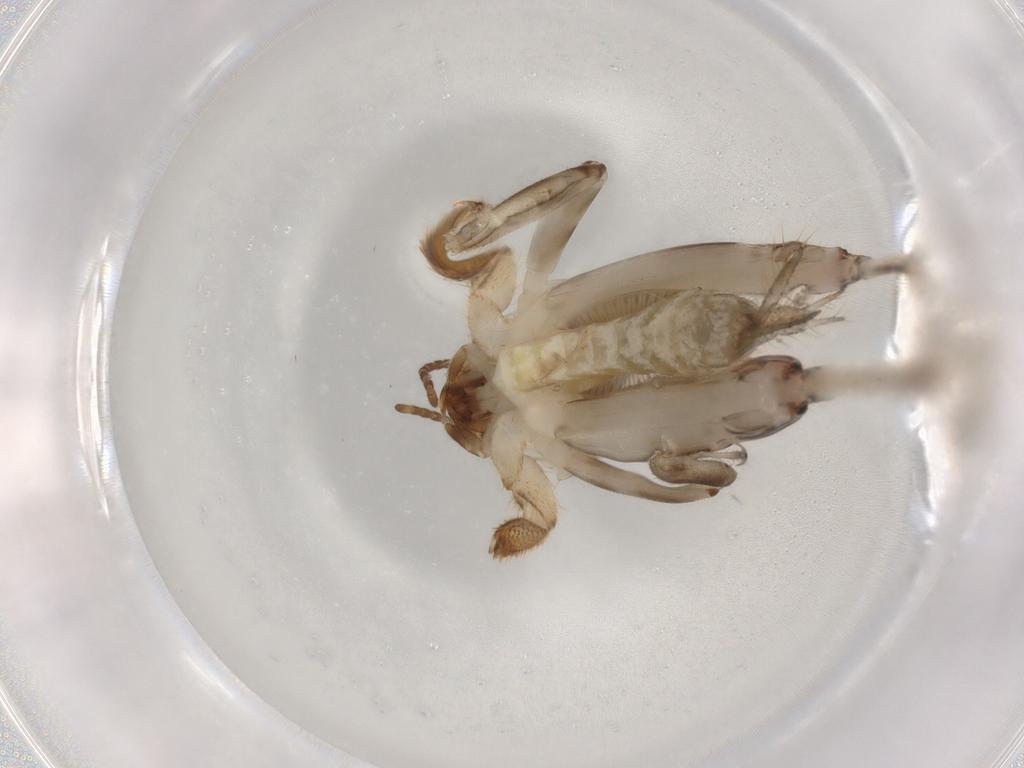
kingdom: Animalia
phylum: Arthropoda
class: Insecta
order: Orthoptera
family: Tridactylidae
